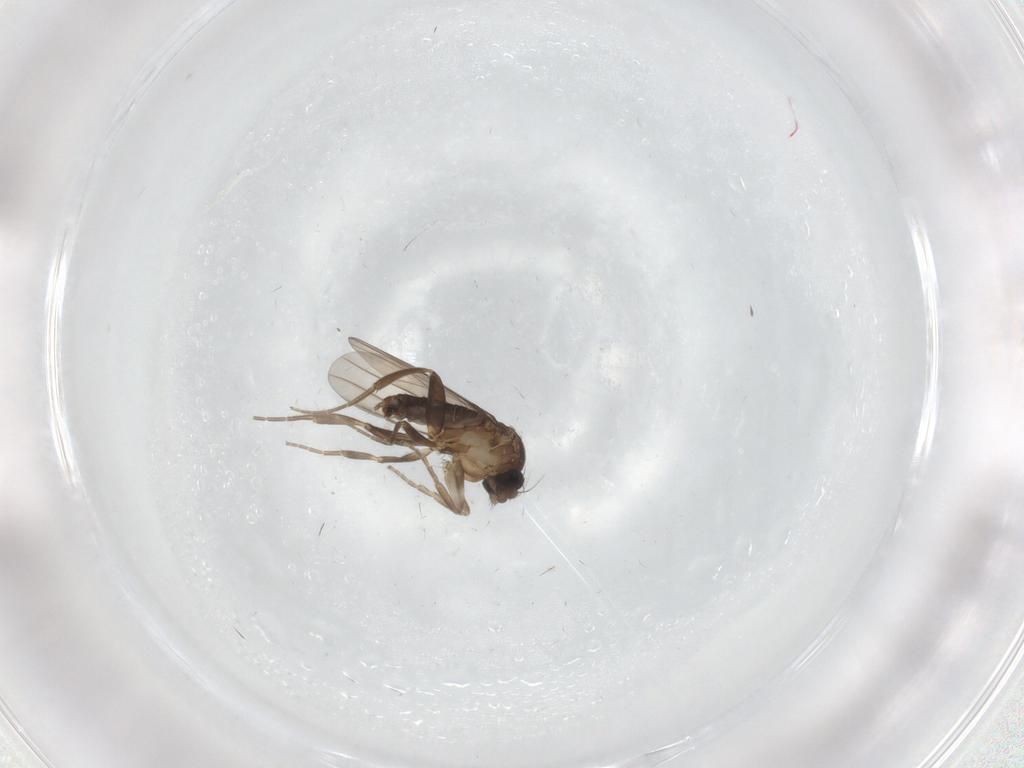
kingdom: Animalia
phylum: Arthropoda
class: Insecta
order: Diptera
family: Phoridae
